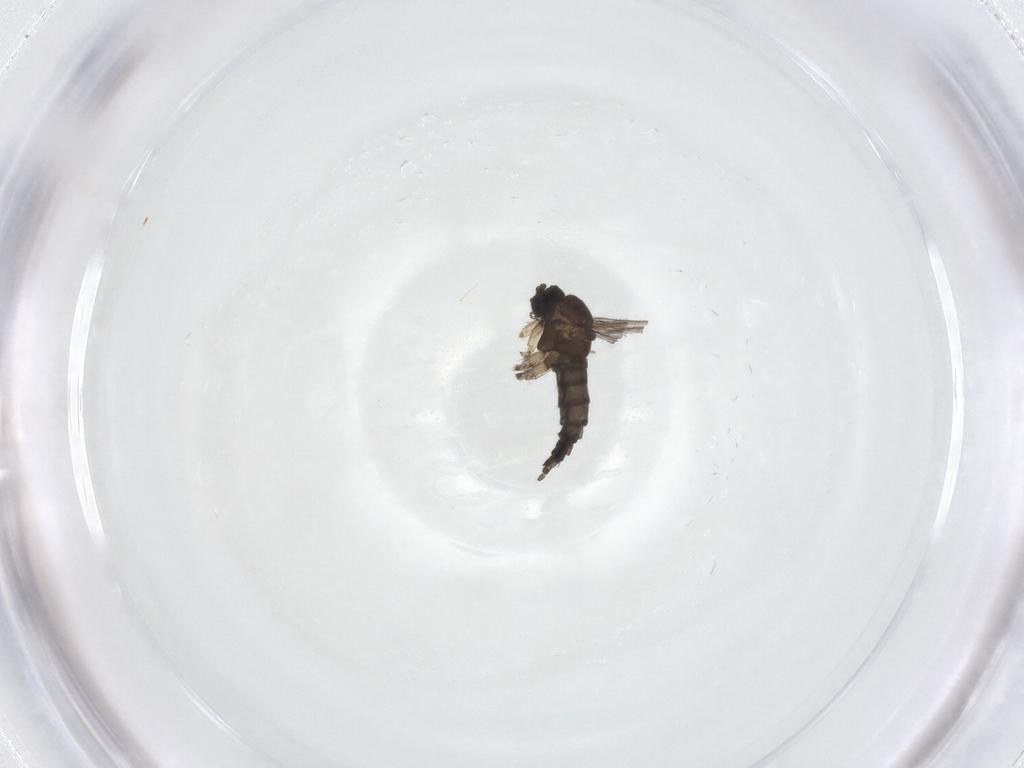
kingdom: Animalia
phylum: Arthropoda
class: Insecta
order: Diptera
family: Sciaridae
